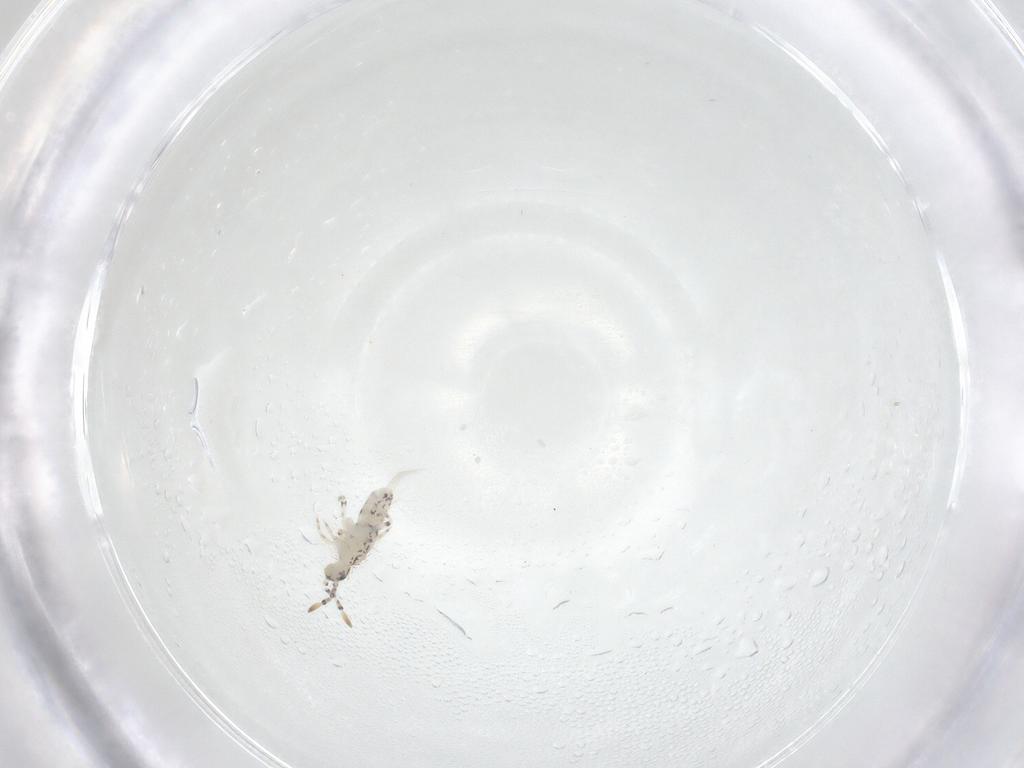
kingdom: Animalia
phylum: Arthropoda
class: Collembola
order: Entomobryomorpha
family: Entomobryidae
